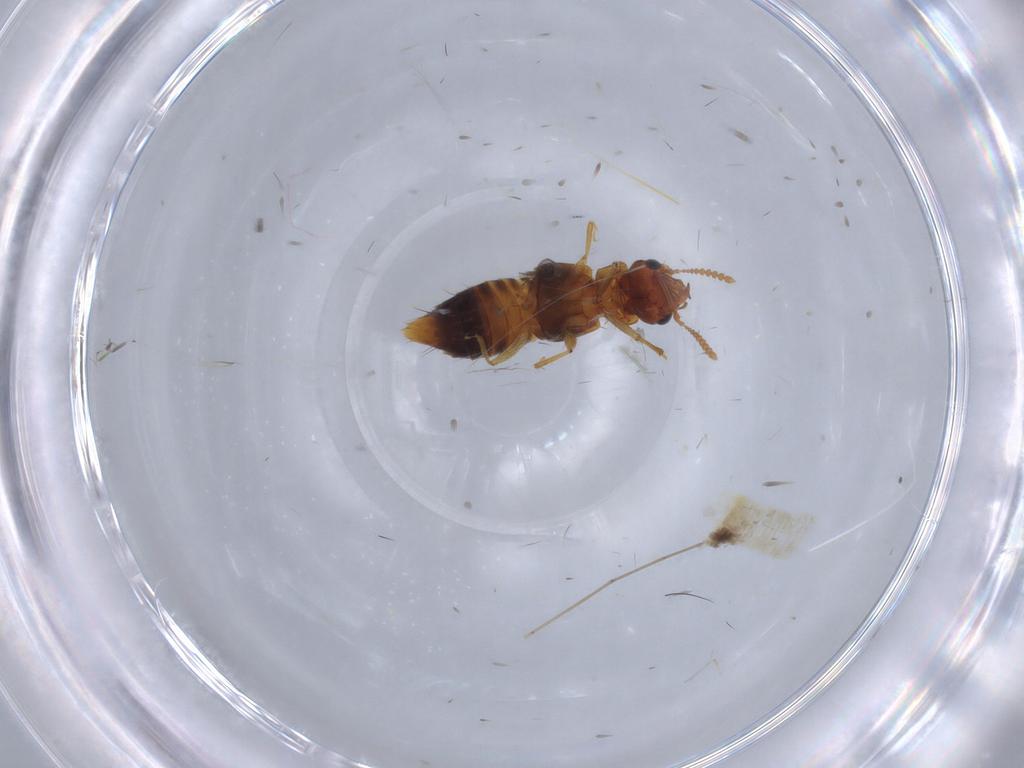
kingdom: Animalia
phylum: Arthropoda
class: Insecta
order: Coleoptera
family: Staphylinidae
